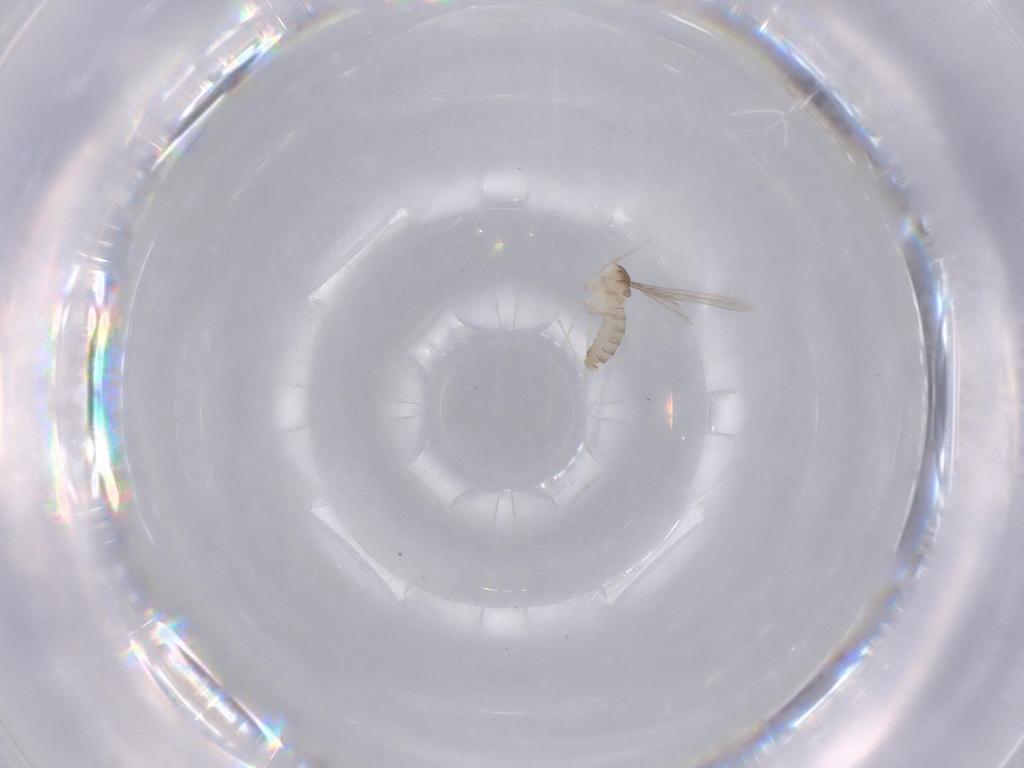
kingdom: Animalia
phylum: Arthropoda
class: Insecta
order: Diptera
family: Cecidomyiidae
